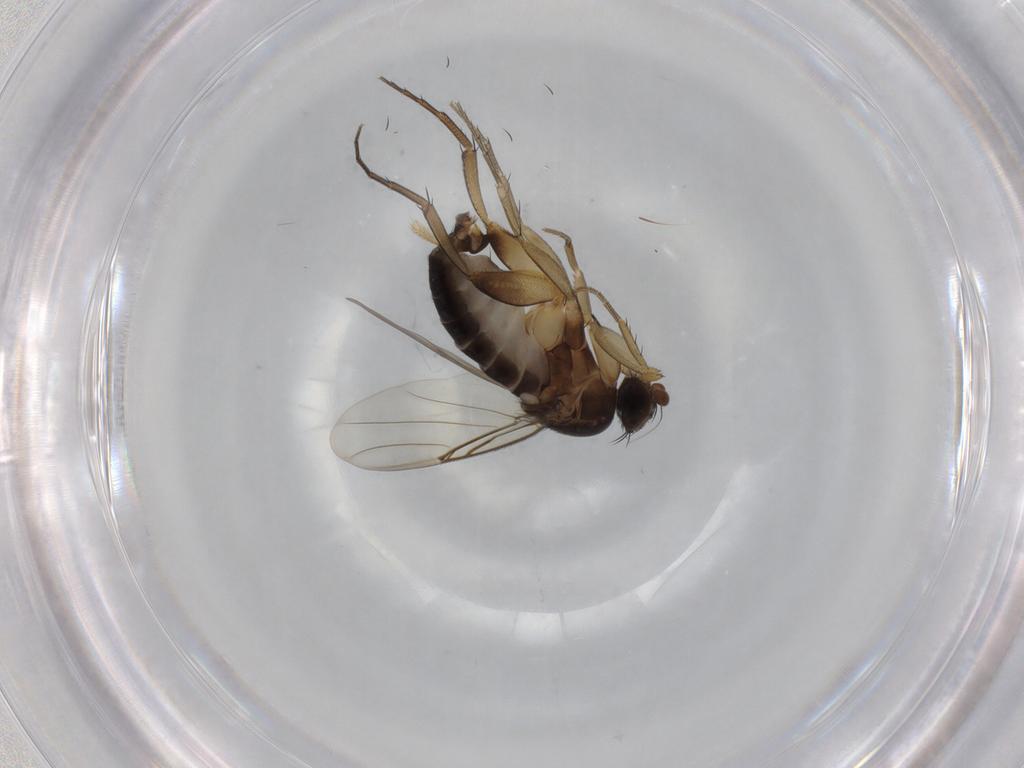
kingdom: Animalia
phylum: Arthropoda
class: Insecta
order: Diptera
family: Phoridae
